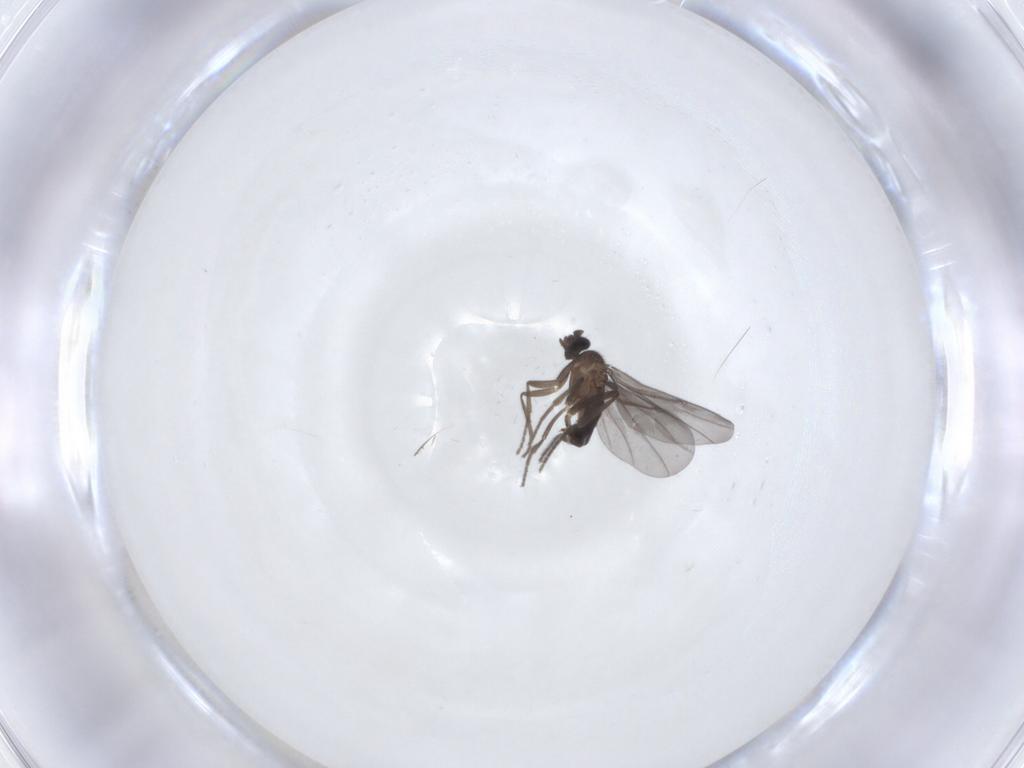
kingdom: Animalia
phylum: Arthropoda
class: Insecta
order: Diptera
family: Phoridae
